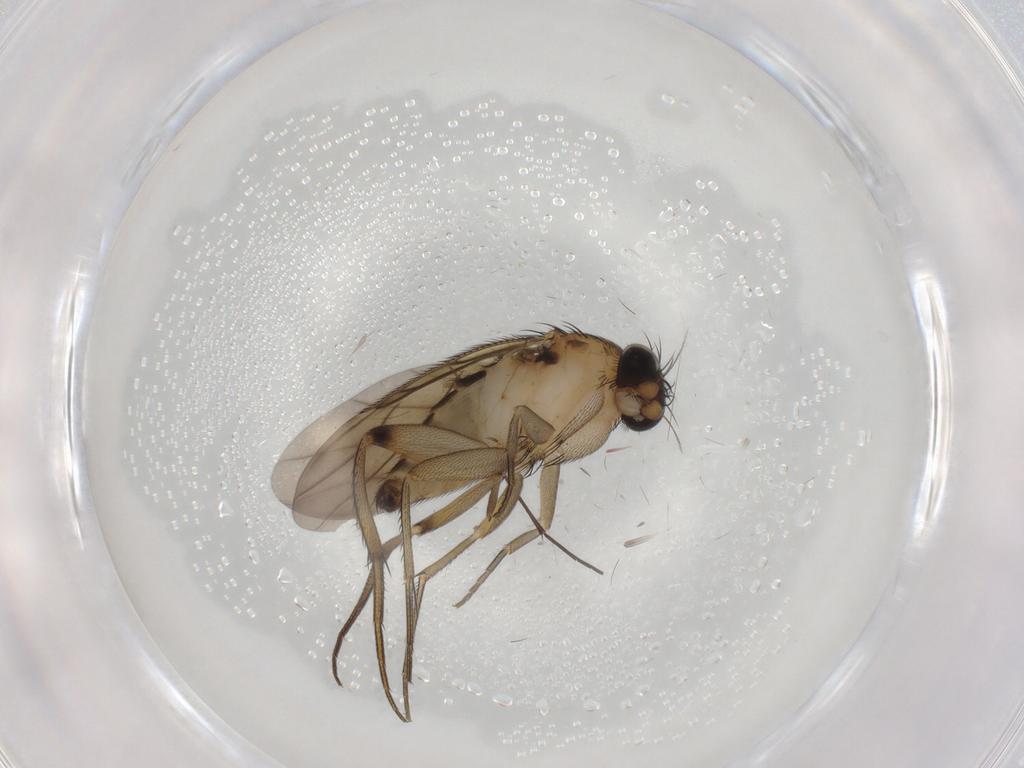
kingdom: Animalia
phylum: Arthropoda
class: Insecta
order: Diptera
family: Sciaridae
